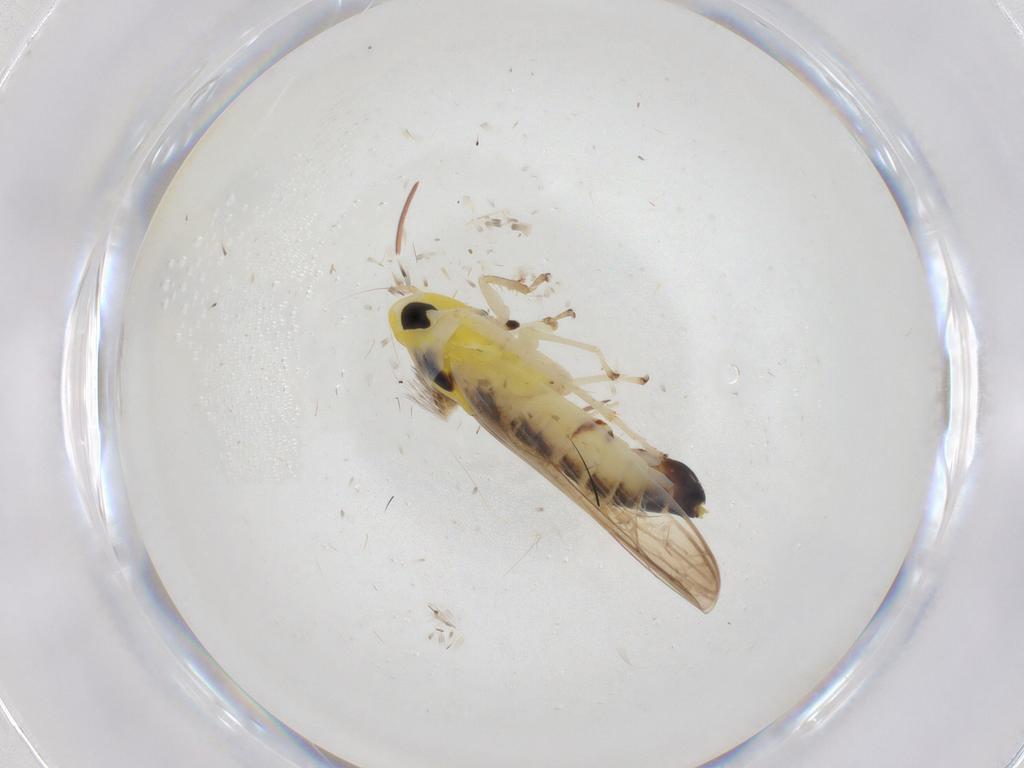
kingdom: Animalia
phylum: Arthropoda
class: Insecta
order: Hemiptera
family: Cicadellidae
